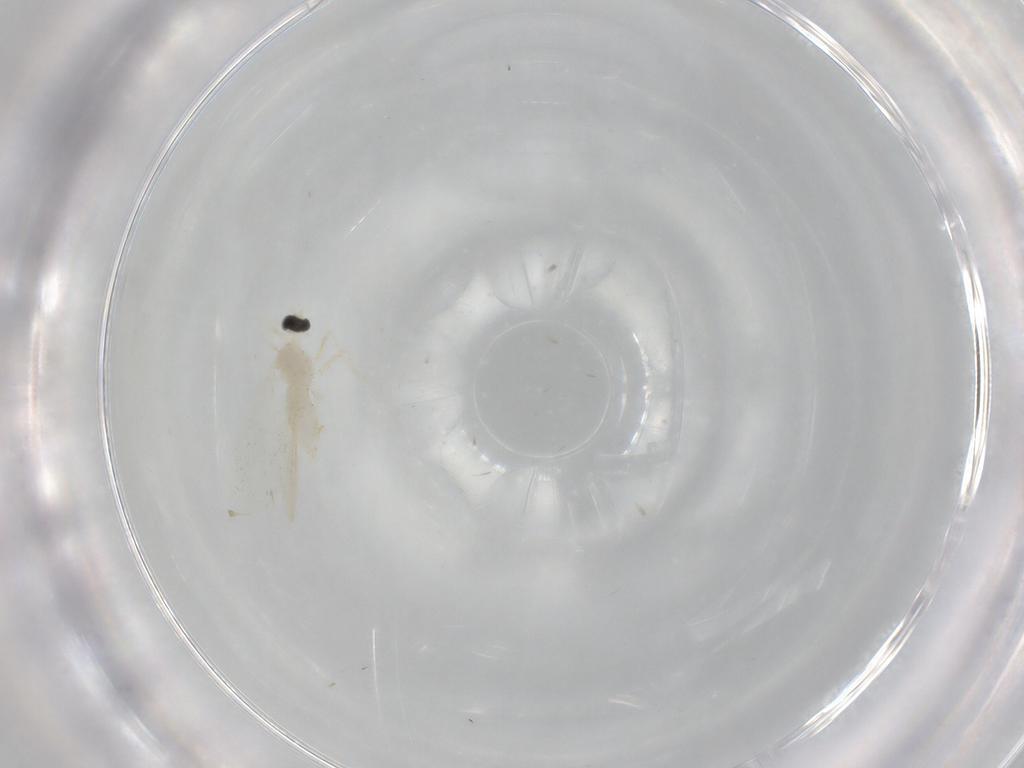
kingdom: Animalia
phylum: Arthropoda
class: Insecta
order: Diptera
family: Cecidomyiidae
